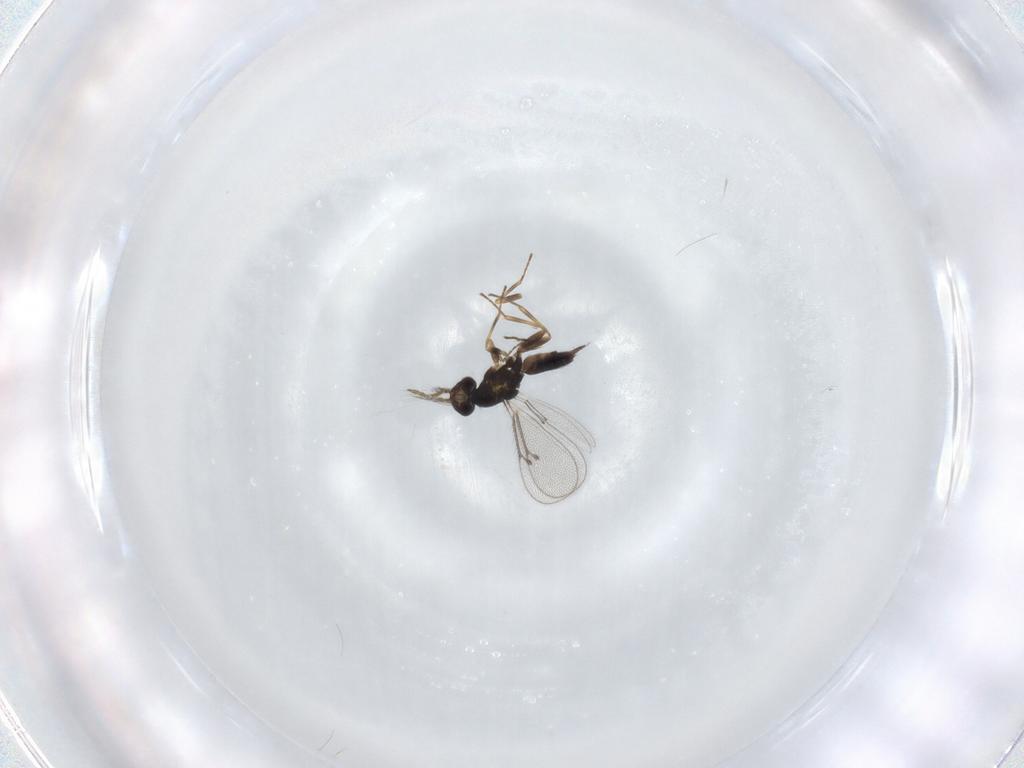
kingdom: Animalia
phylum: Arthropoda
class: Insecta
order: Hymenoptera
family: Eulophidae
